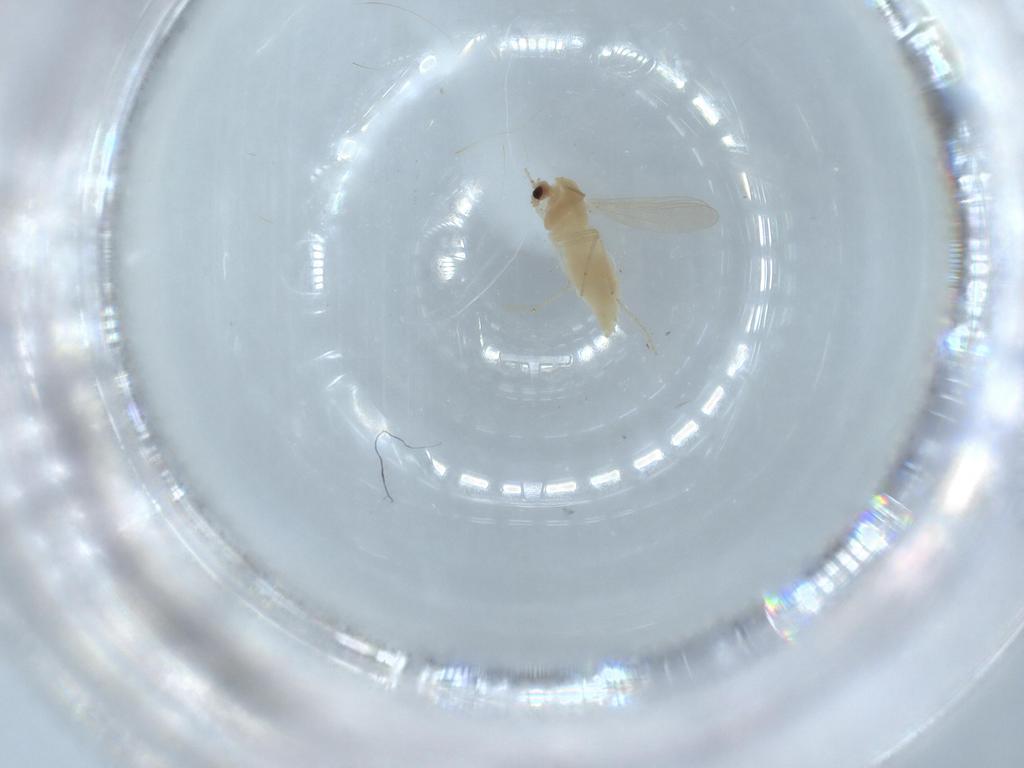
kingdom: Animalia
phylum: Arthropoda
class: Insecta
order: Diptera
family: Chironomidae
